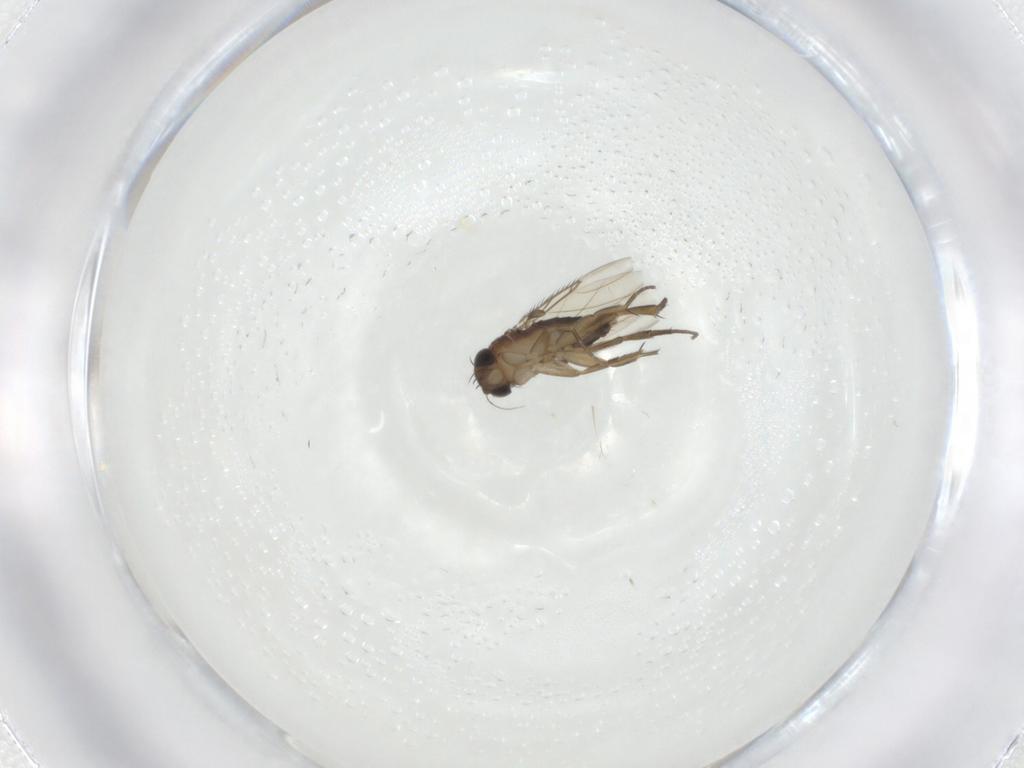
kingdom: Animalia
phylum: Arthropoda
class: Insecta
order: Diptera
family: Phoridae
